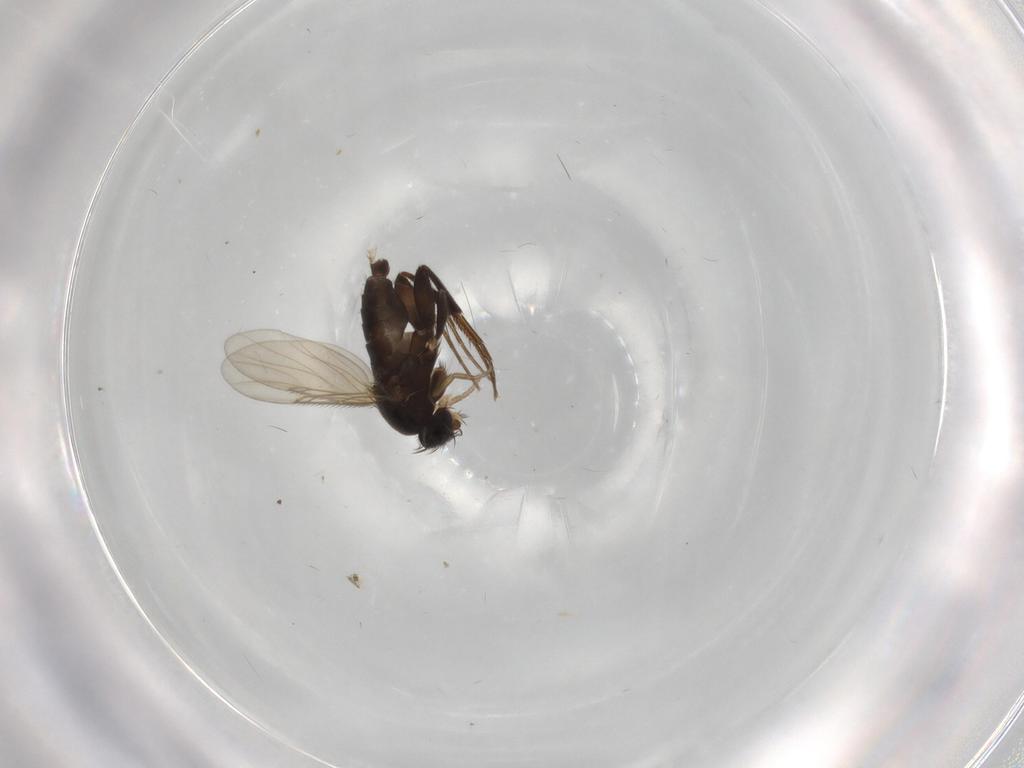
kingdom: Animalia
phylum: Arthropoda
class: Insecta
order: Diptera
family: Phoridae
